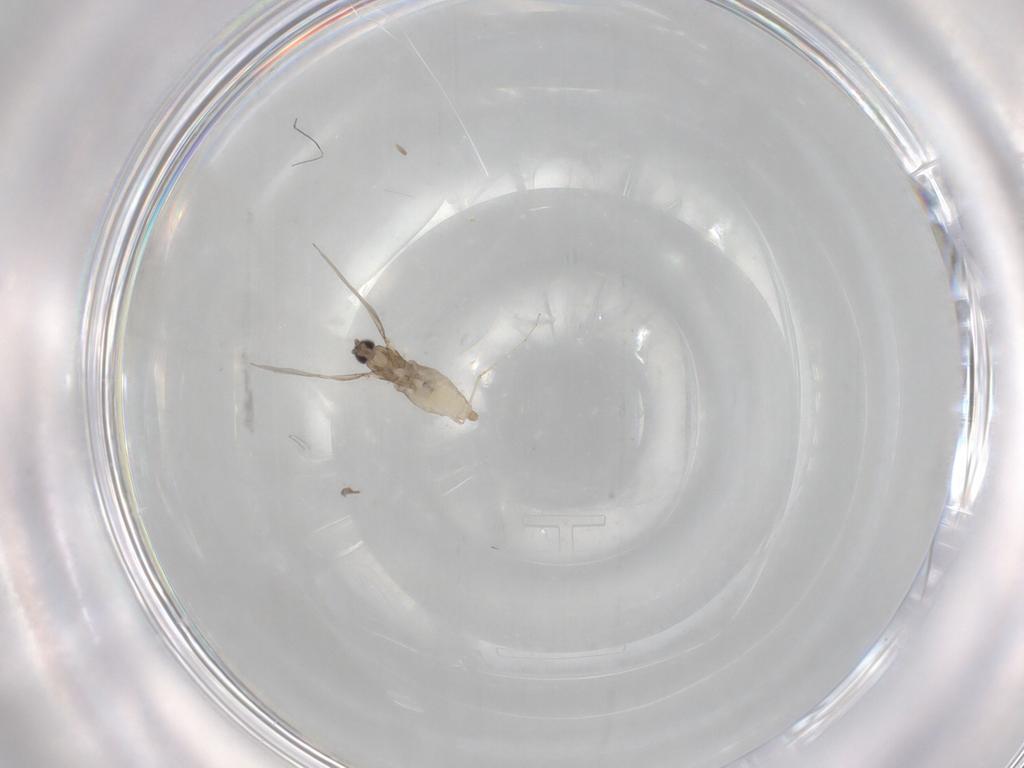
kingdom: Animalia
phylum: Arthropoda
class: Insecta
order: Diptera
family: Cecidomyiidae
